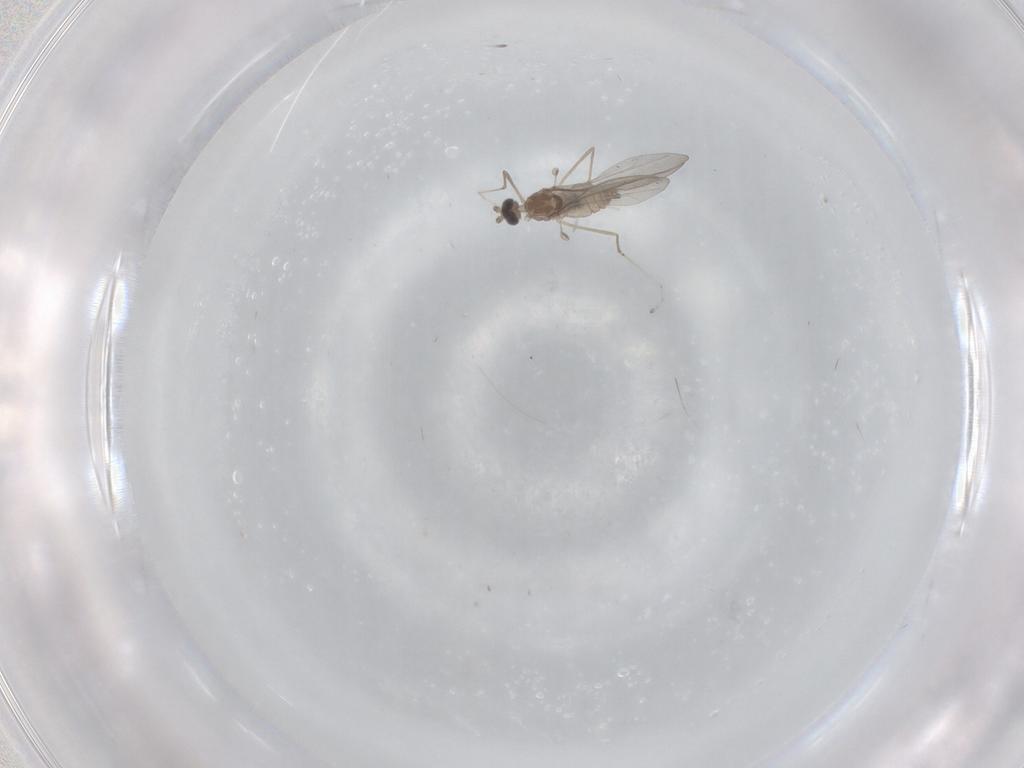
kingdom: Animalia
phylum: Arthropoda
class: Insecta
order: Diptera
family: Cecidomyiidae
